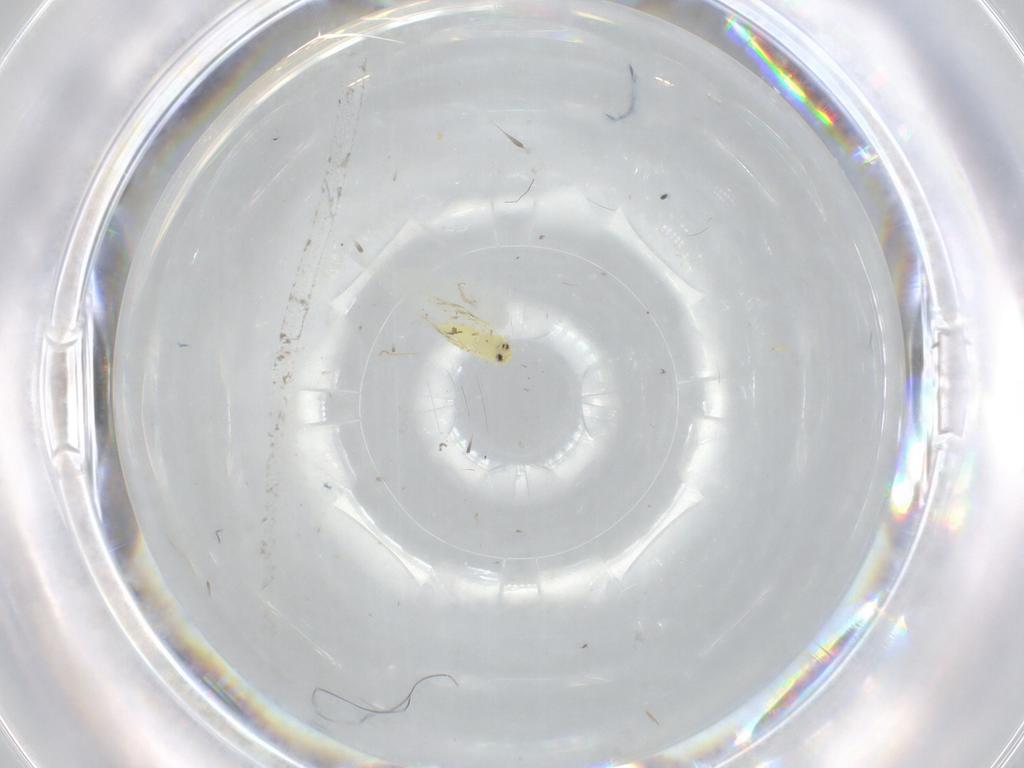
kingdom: Animalia
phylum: Arthropoda
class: Insecta
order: Hemiptera
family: Aleyrodidae
